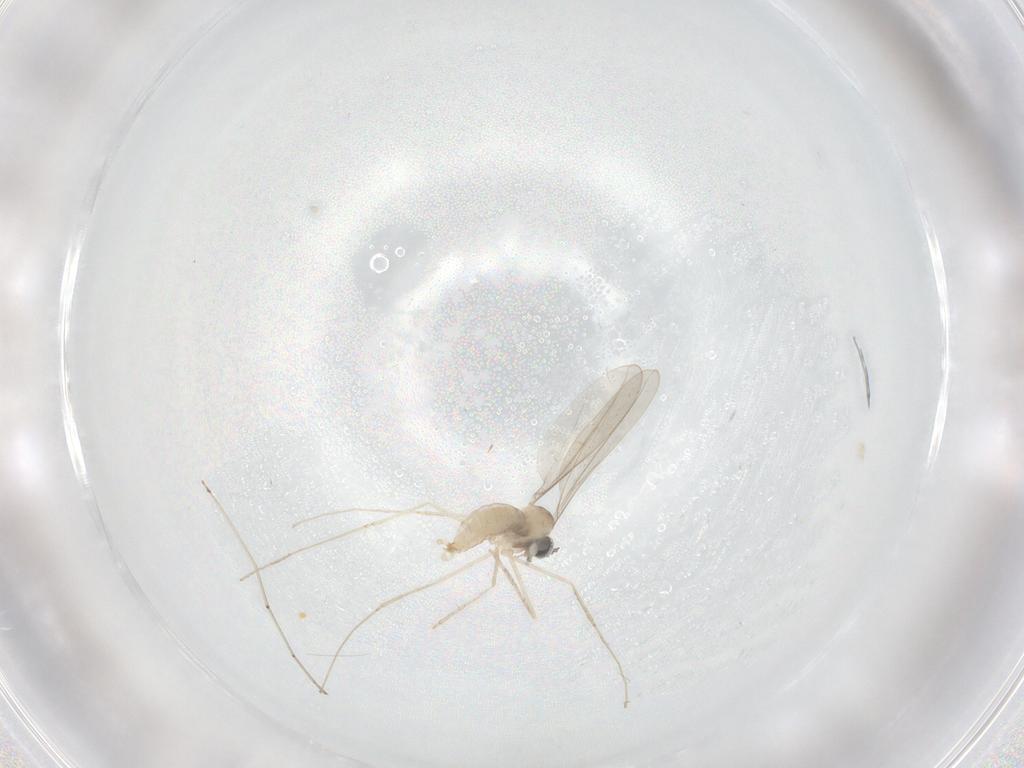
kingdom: Animalia
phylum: Arthropoda
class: Insecta
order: Diptera
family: Cecidomyiidae
